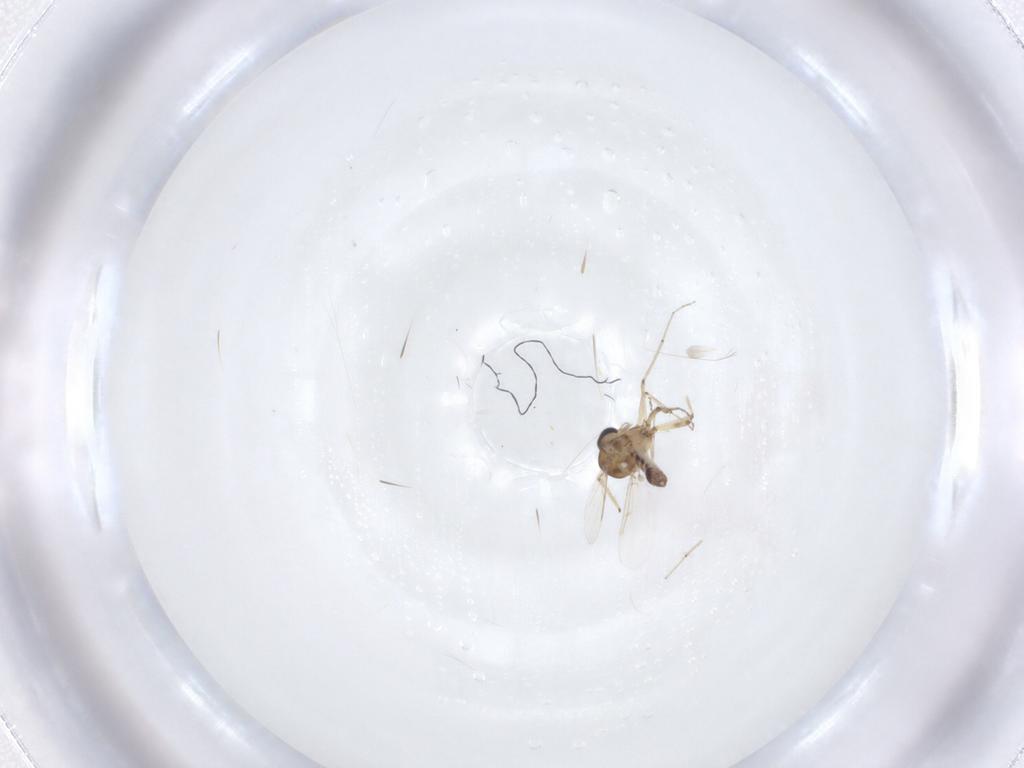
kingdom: Animalia
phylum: Arthropoda
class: Insecta
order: Diptera
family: Ceratopogonidae
